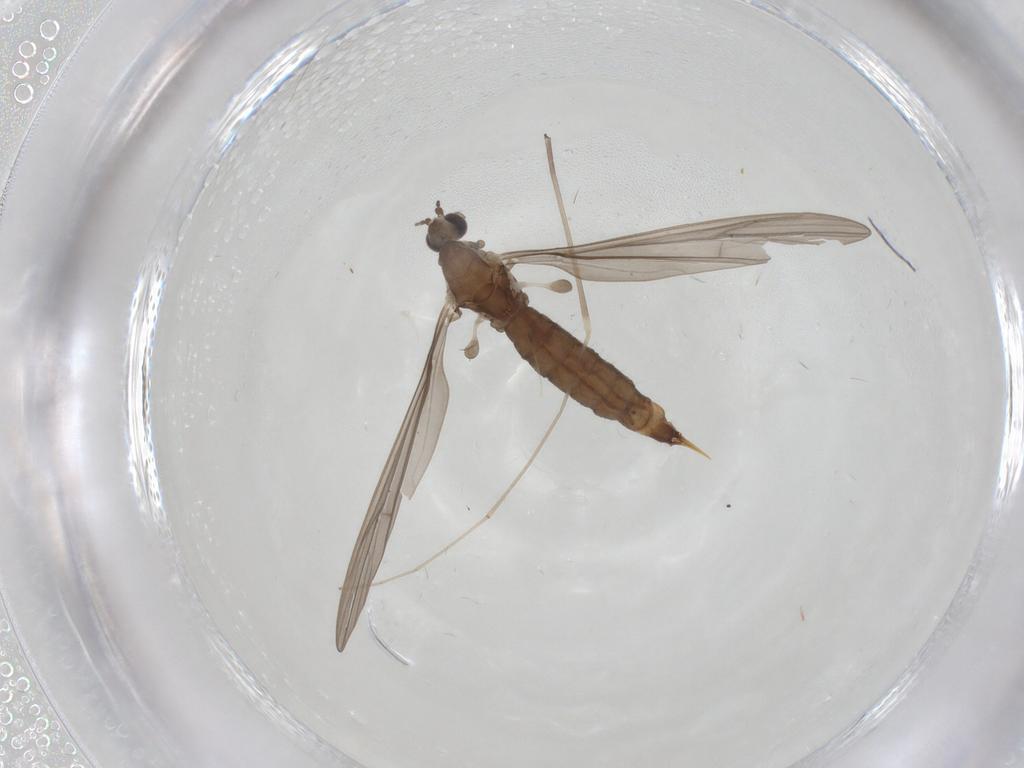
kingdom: Animalia
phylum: Arthropoda
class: Insecta
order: Diptera
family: Limoniidae
